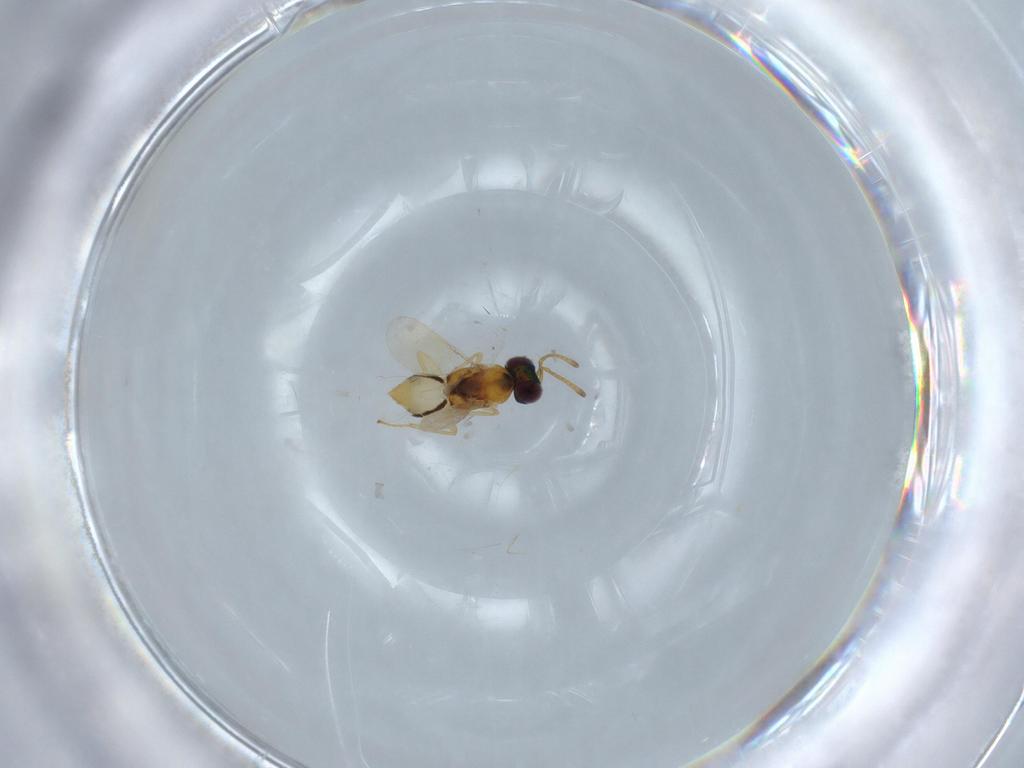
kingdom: Animalia
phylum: Arthropoda
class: Insecta
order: Hymenoptera
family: Encyrtidae
